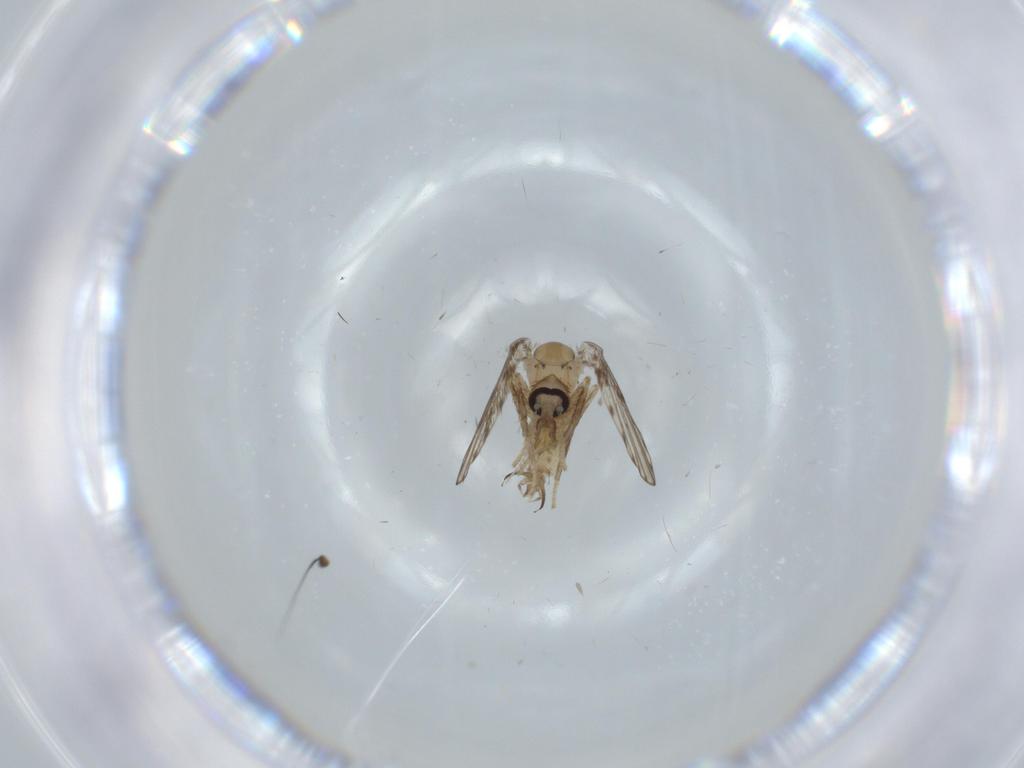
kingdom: Animalia
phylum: Arthropoda
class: Insecta
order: Diptera
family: Psychodidae
